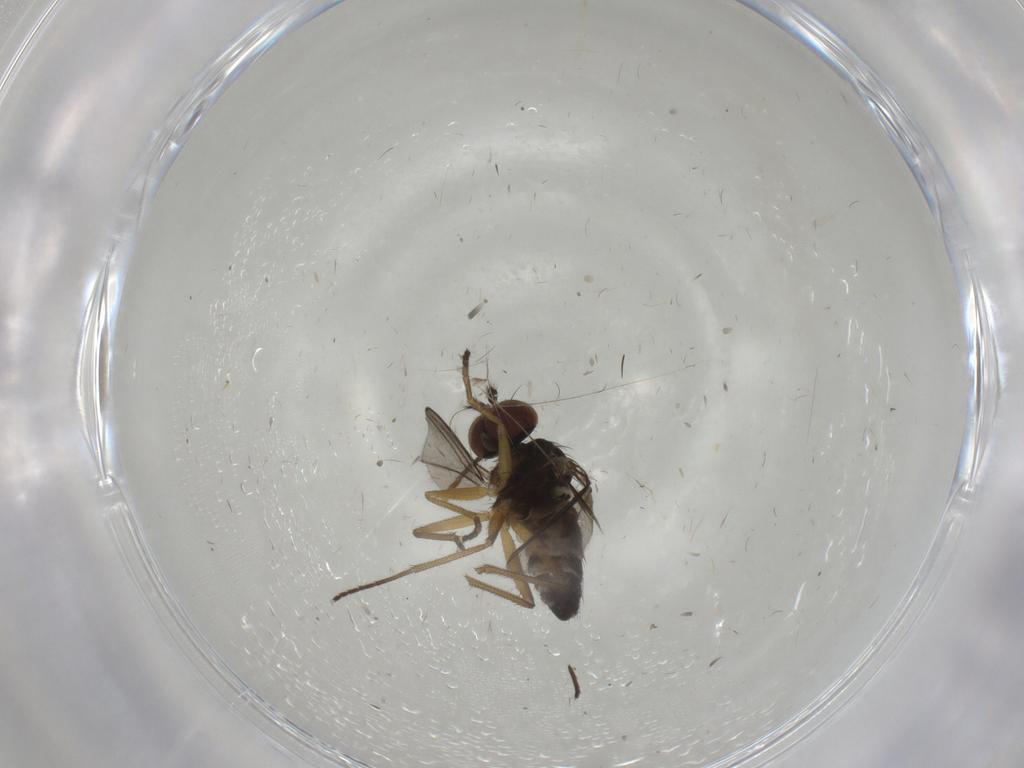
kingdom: Animalia
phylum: Arthropoda
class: Insecta
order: Diptera
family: Dolichopodidae
